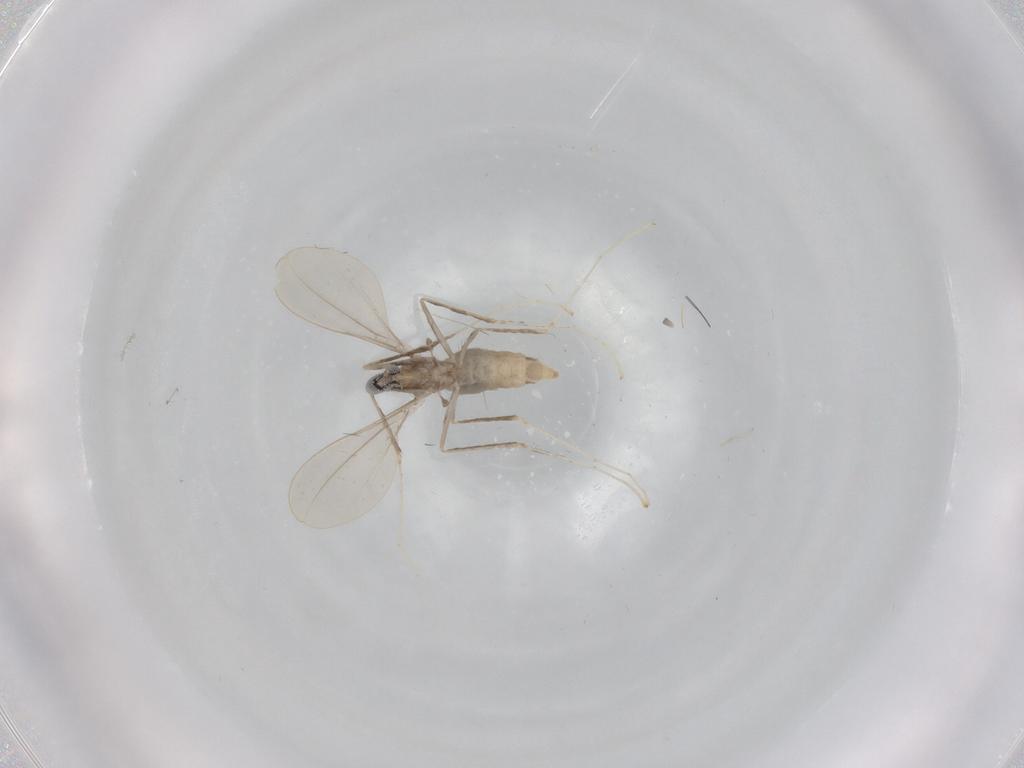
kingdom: Animalia
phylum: Arthropoda
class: Insecta
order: Diptera
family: Cecidomyiidae
